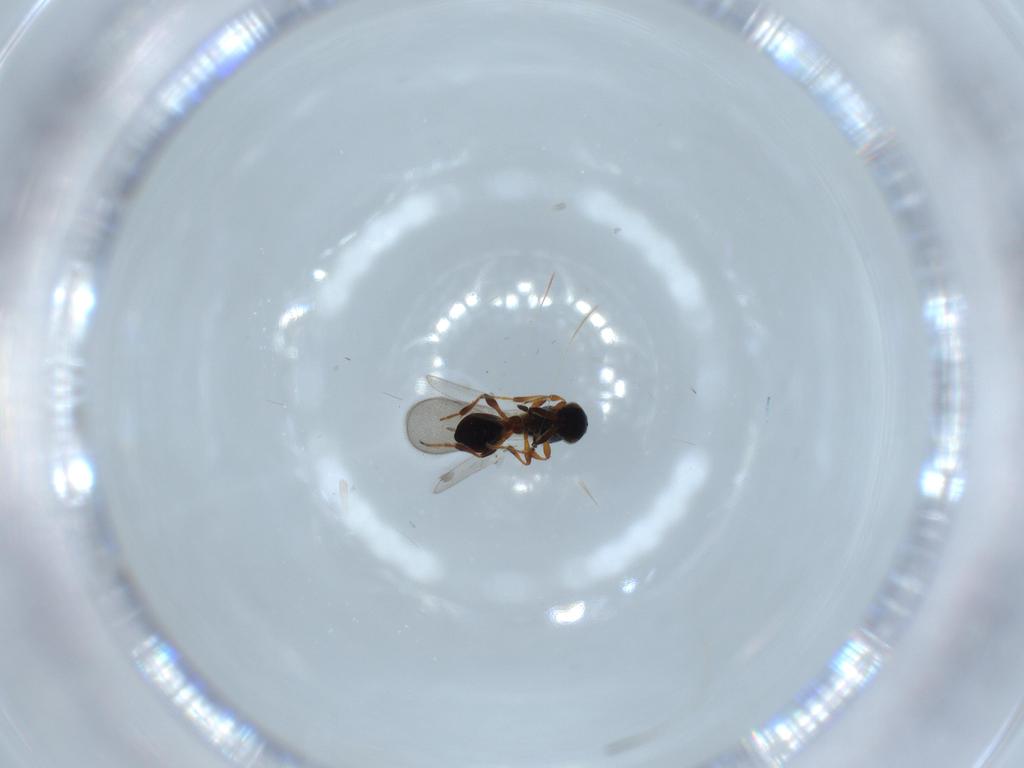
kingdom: Animalia
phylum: Arthropoda
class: Insecta
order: Hymenoptera
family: Platygastridae
